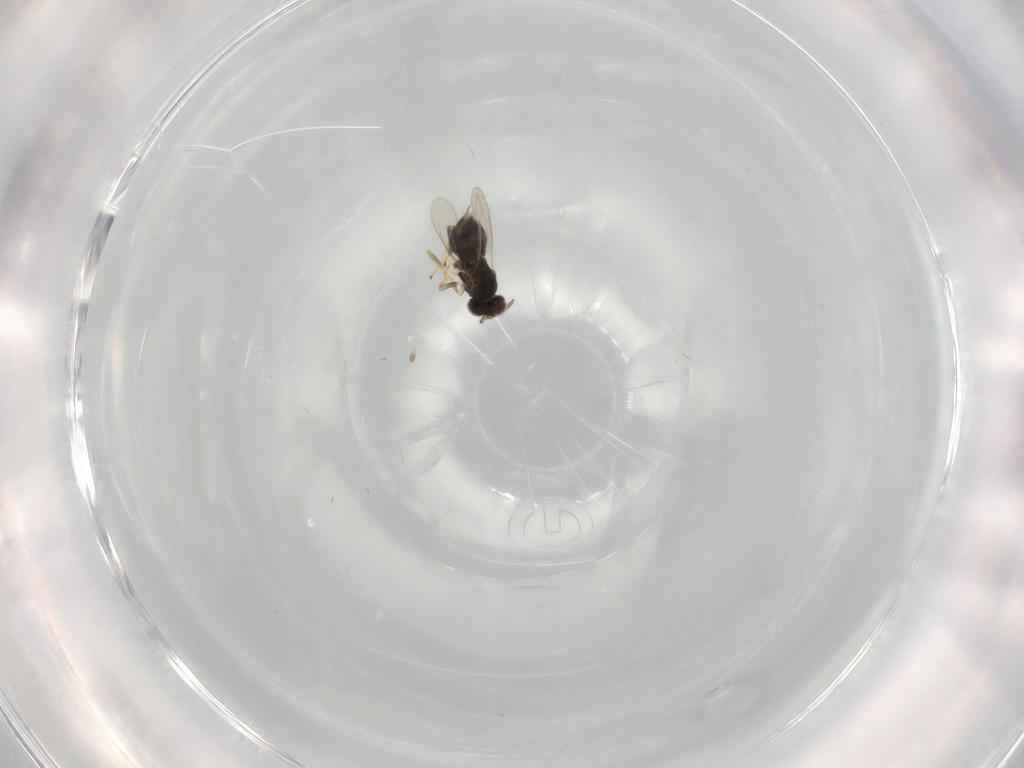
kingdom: Animalia
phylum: Arthropoda
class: Insecta
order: Hymenoptera
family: Aphelinidae
